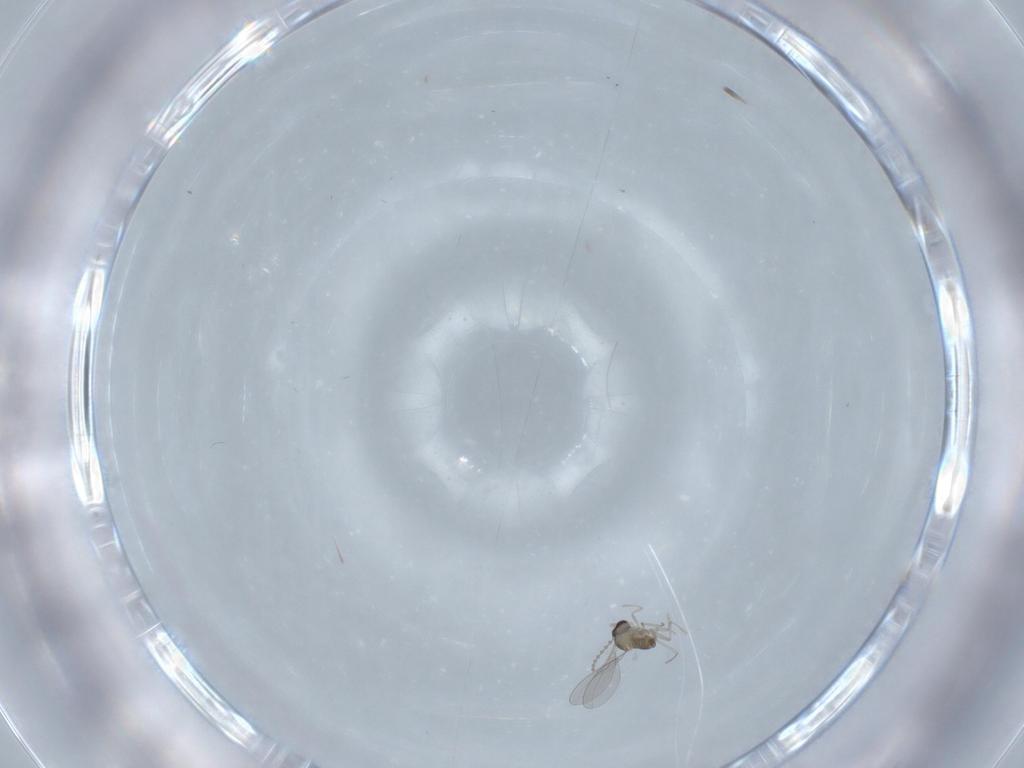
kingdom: Animalia
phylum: Arthropoda
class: Insecta
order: Diptera
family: Cecidomyiidae
